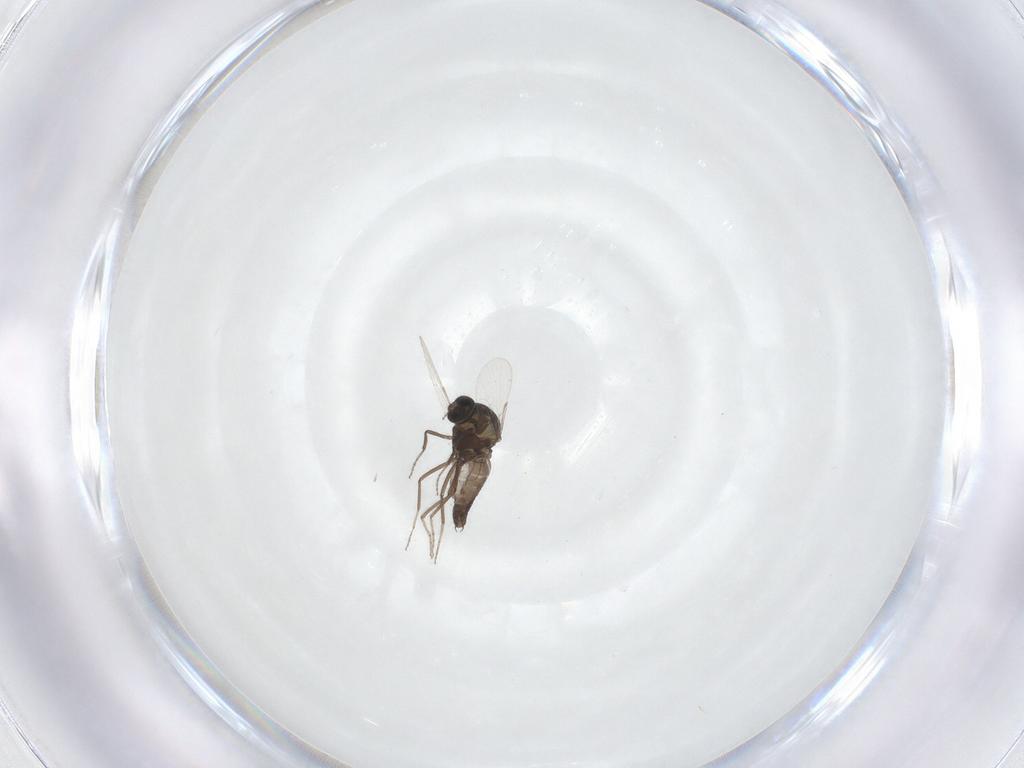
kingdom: Animalia
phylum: Arthropoda
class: Insecta
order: Diptera
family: Ceratopogonidae
